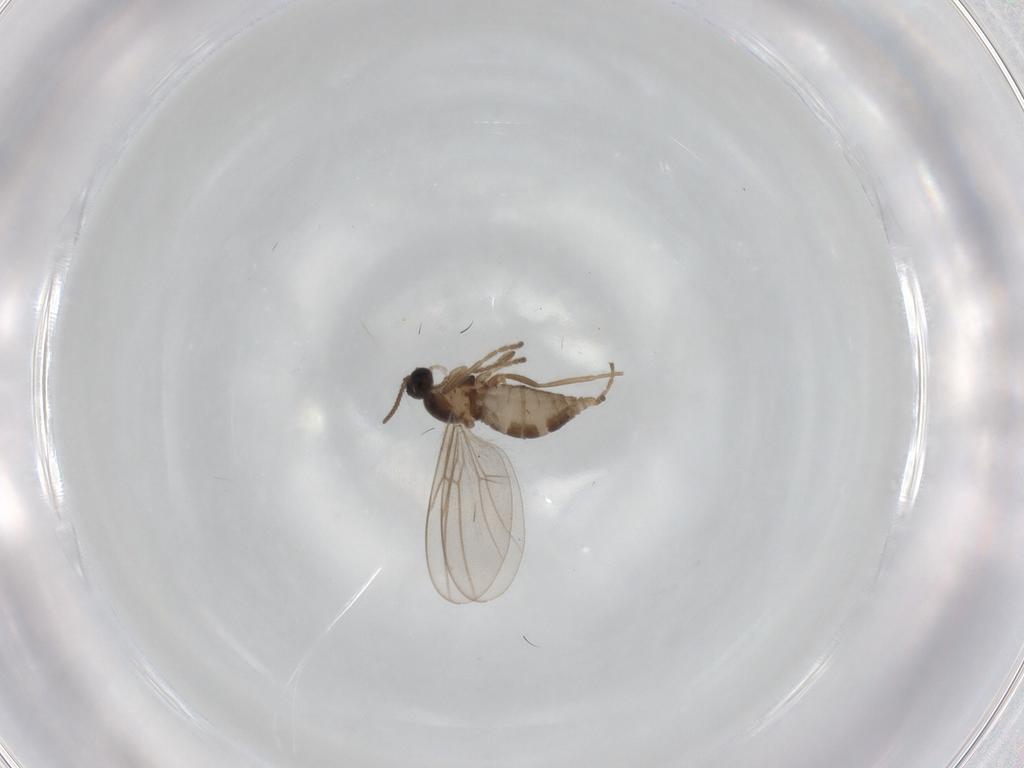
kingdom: Animalia
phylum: Arthropoda
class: Insecta
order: Diptera
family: Cecidomyiidae
